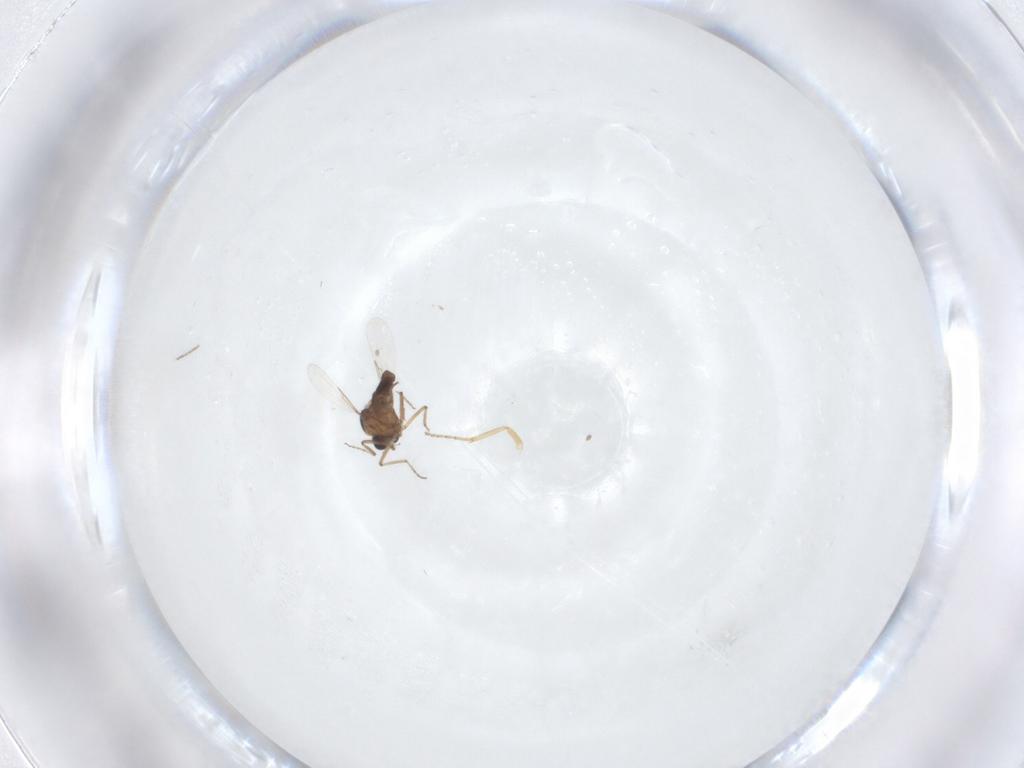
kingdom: Animalia
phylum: Arthropoda
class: Insecta
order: Diptera
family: Ceratopogonidae
